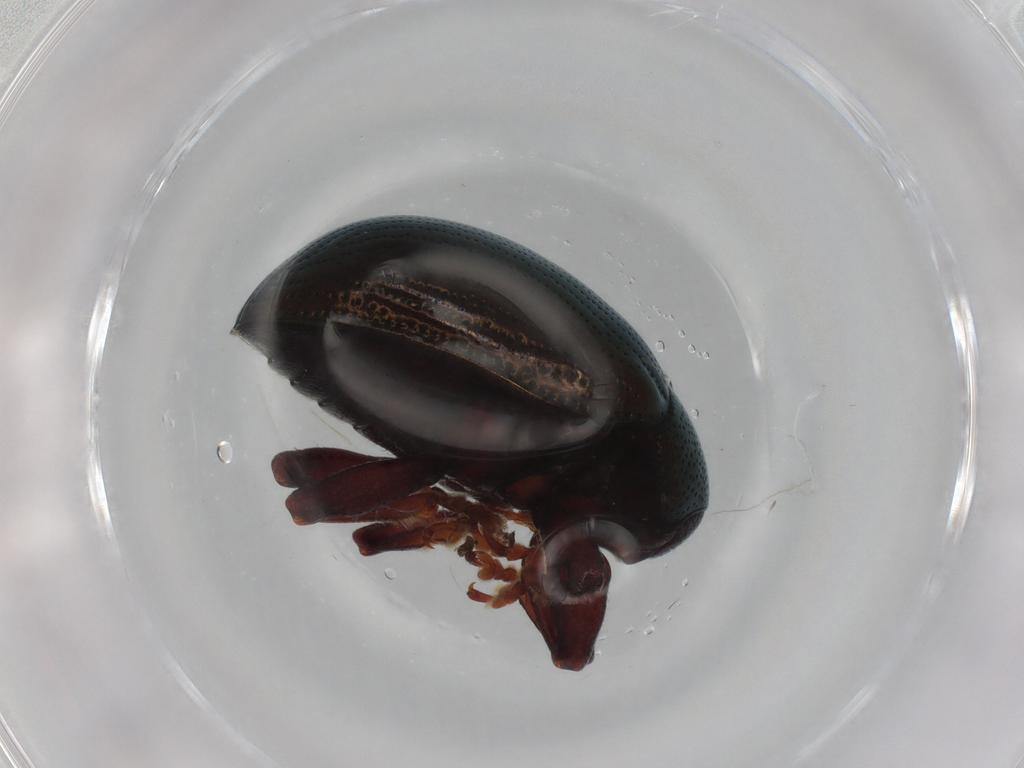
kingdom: Animalia
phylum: Arthropoda
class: Insecta
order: Coleoptera
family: Chrysomelidae
